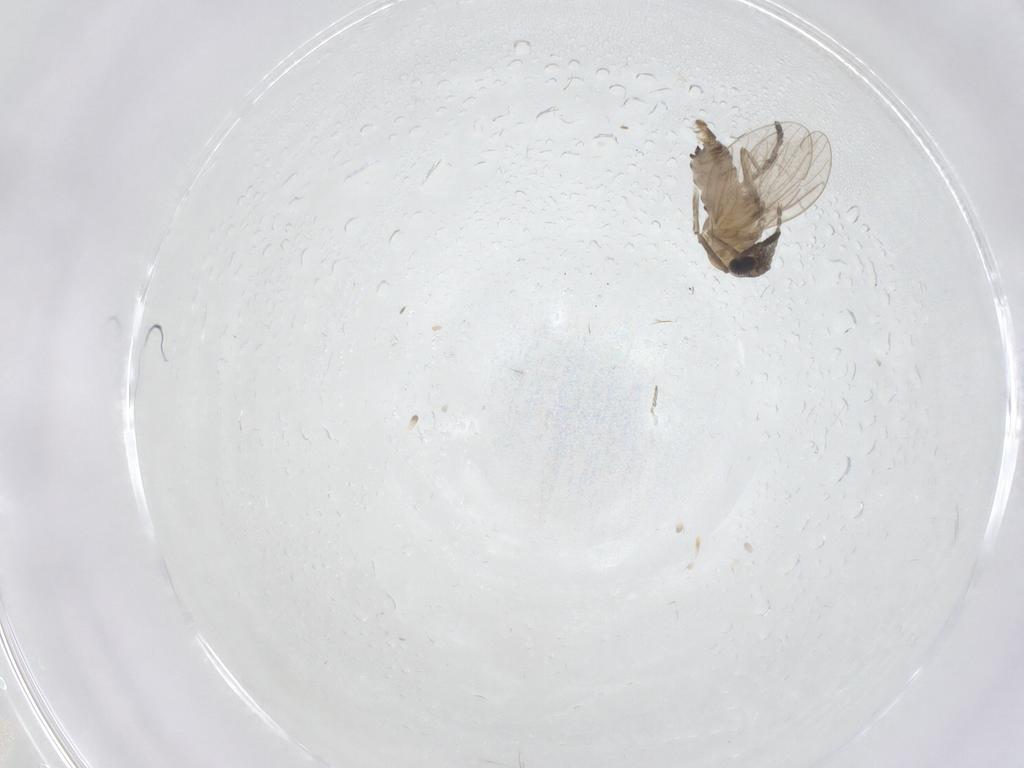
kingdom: Animalia
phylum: Arthropoda
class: Insecta
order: Diptera
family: Psychodidae
